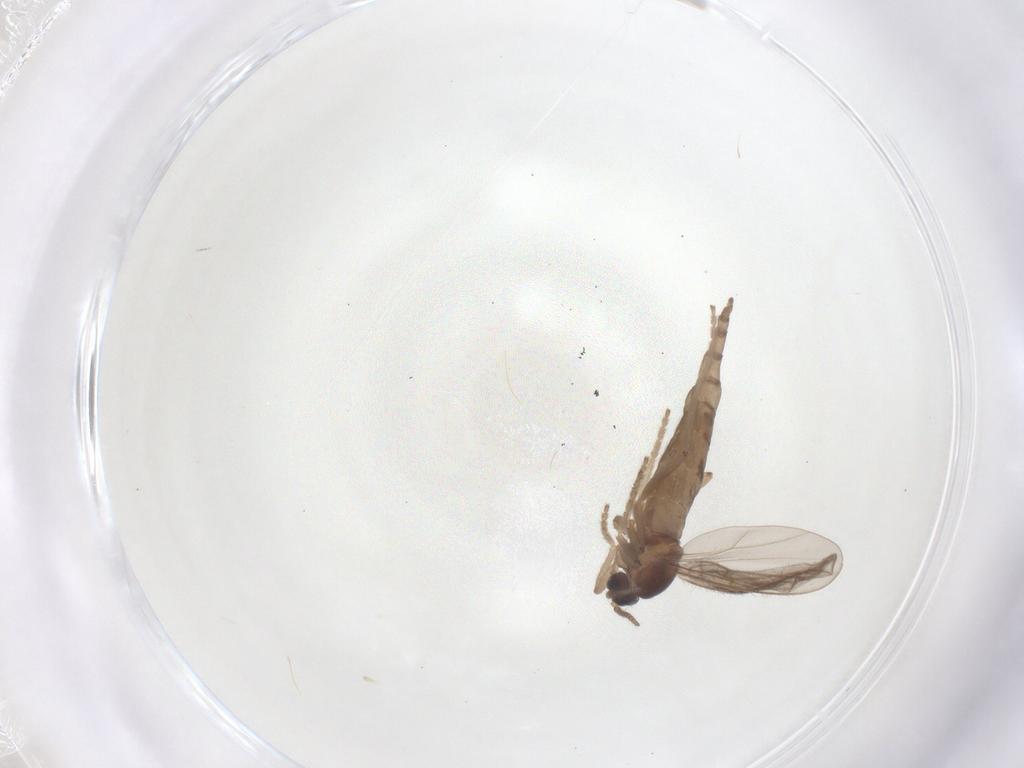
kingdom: Animalia
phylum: Arthropoda
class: Insecta
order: Diptera
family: Cecidomyiidae
